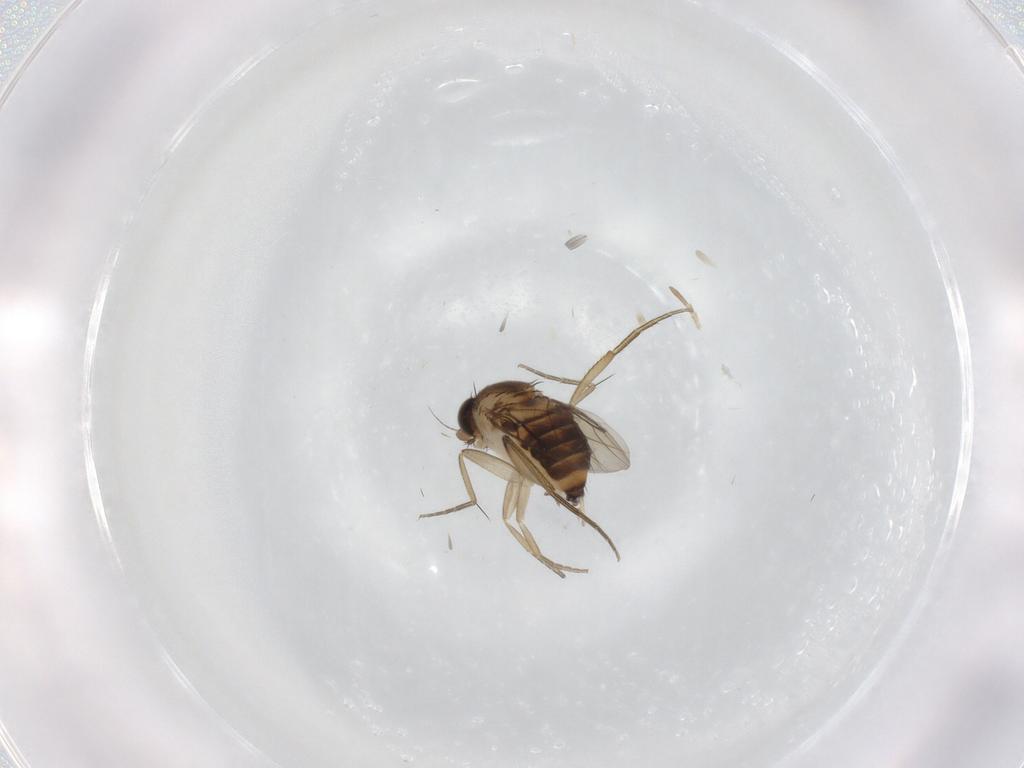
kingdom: Animalia
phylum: Arthropoda
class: Insecta
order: Diptera
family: Phoridae
